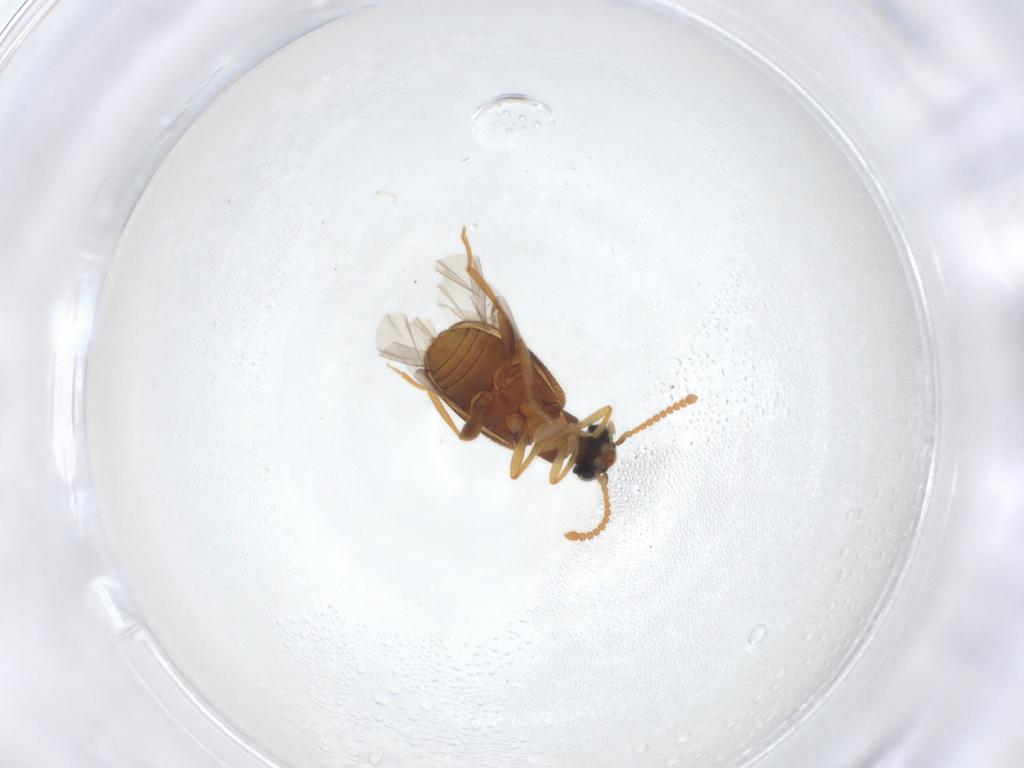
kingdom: Animalia
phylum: Arthropoda
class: Insecta
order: Coleoptera
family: Aderidae
